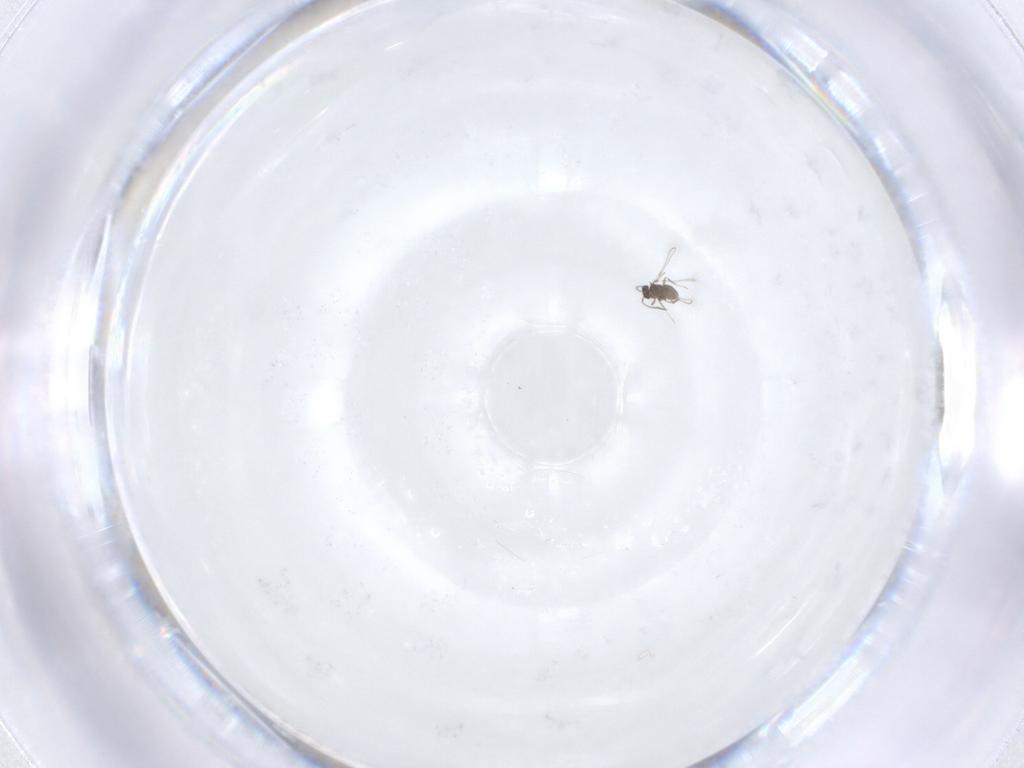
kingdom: Animalia
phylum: Arthropoda
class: Insecta
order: Hymenoptera
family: Mymaridae
